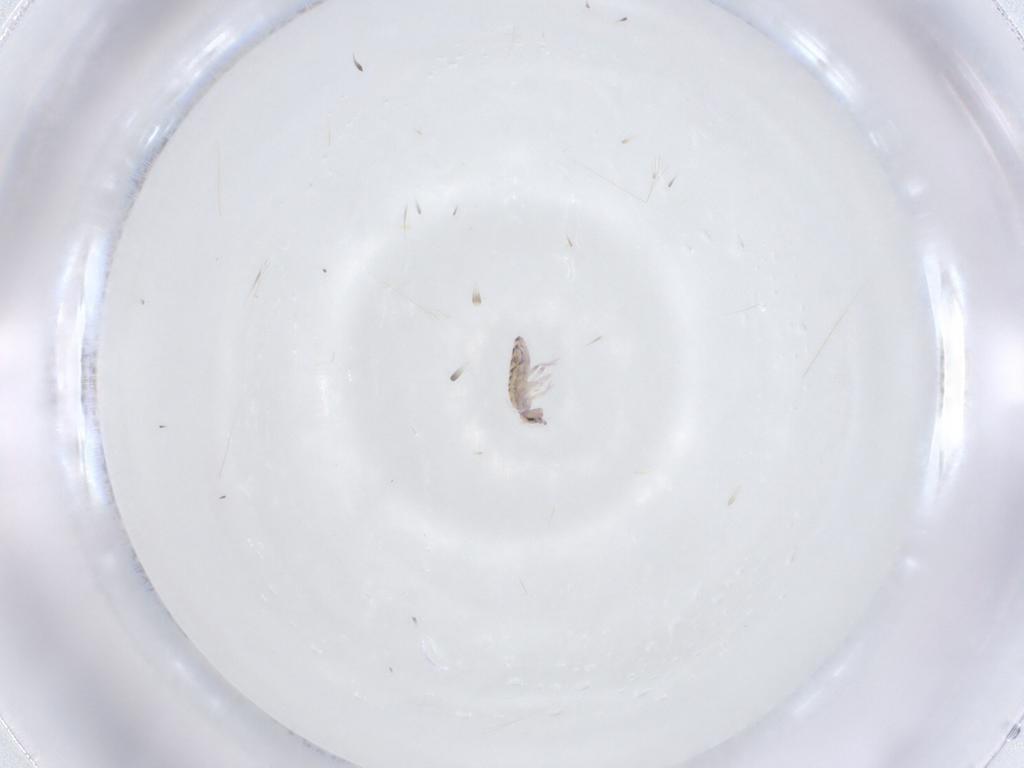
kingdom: Animalia
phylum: Arthropoda
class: Collembola
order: Entomobryomorpha
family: Entomobryidae
